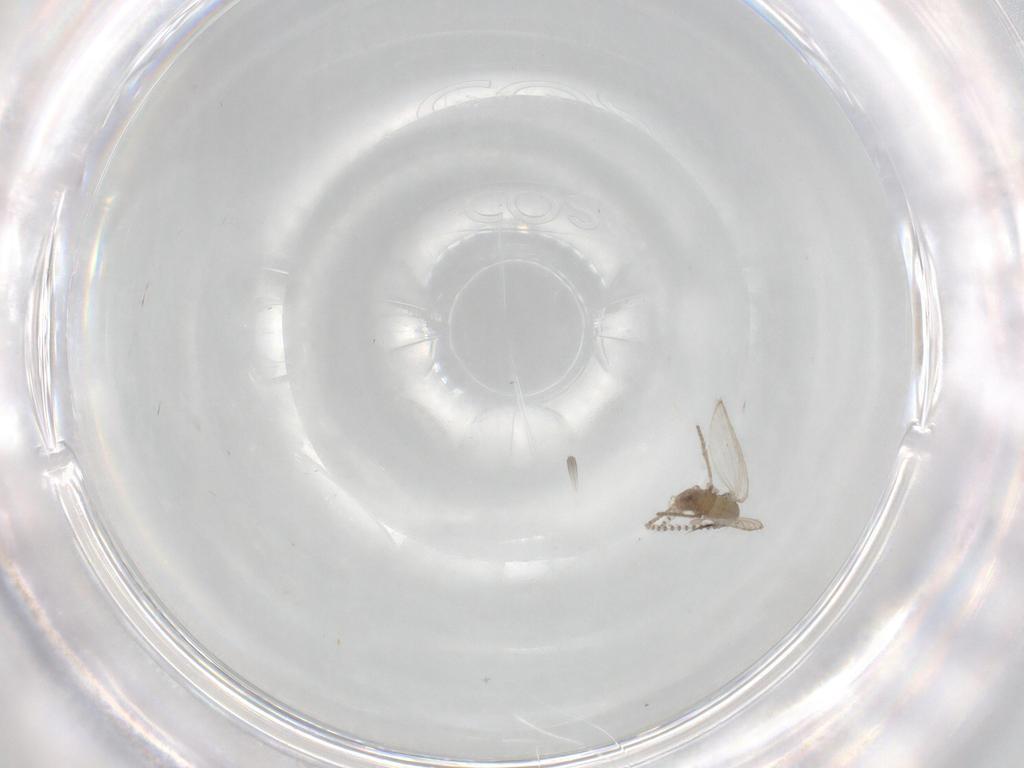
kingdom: Animalia
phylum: Arthropoda
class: Insecta
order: Diptera
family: Psychodidae
